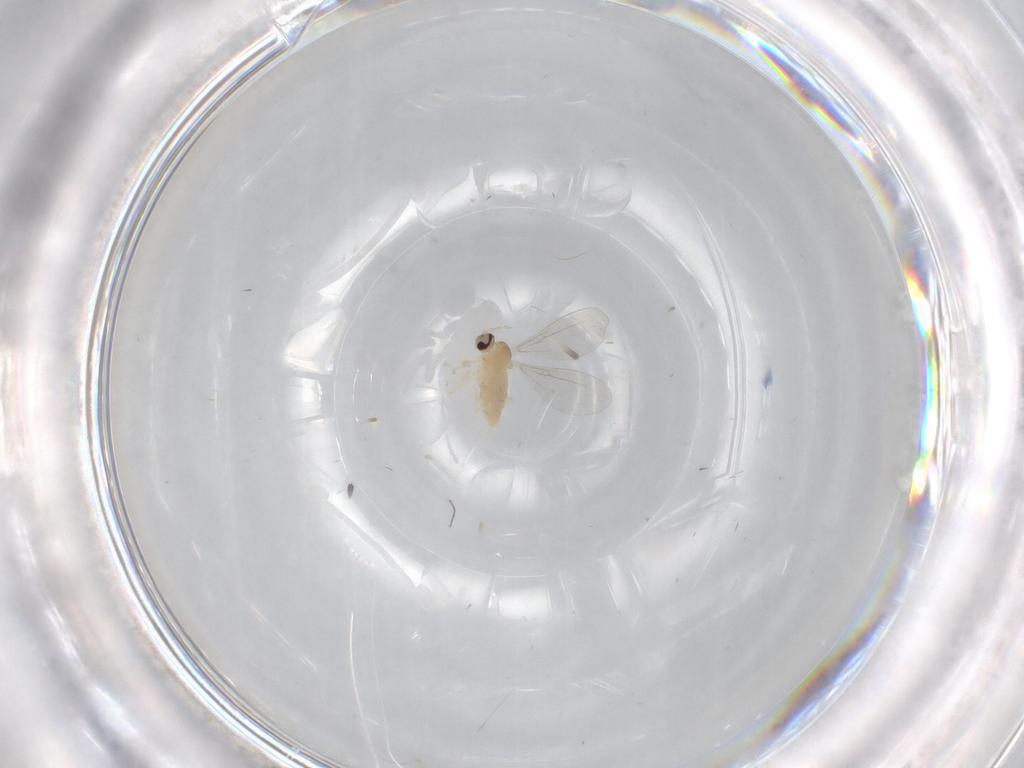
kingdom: Animalia
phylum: Arthropoda
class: Insecta
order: Diptera
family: Cecidomyiidae
